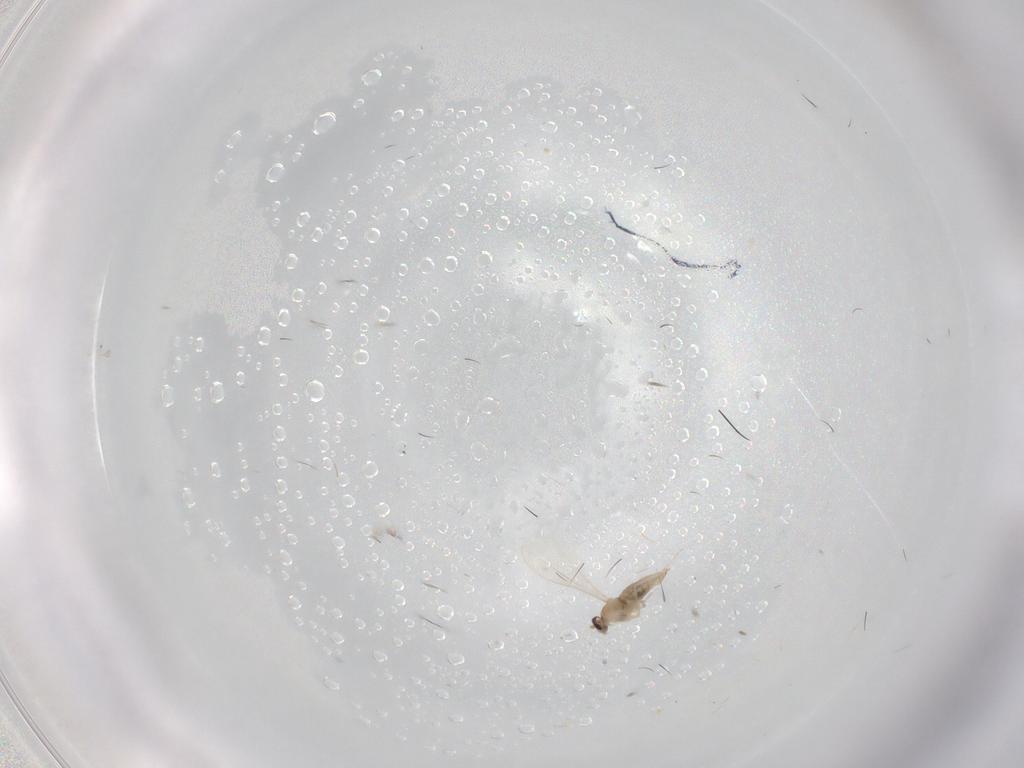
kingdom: Animalia
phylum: Arthropoda
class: Insecta
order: Diptera
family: Cecidomyiidae
